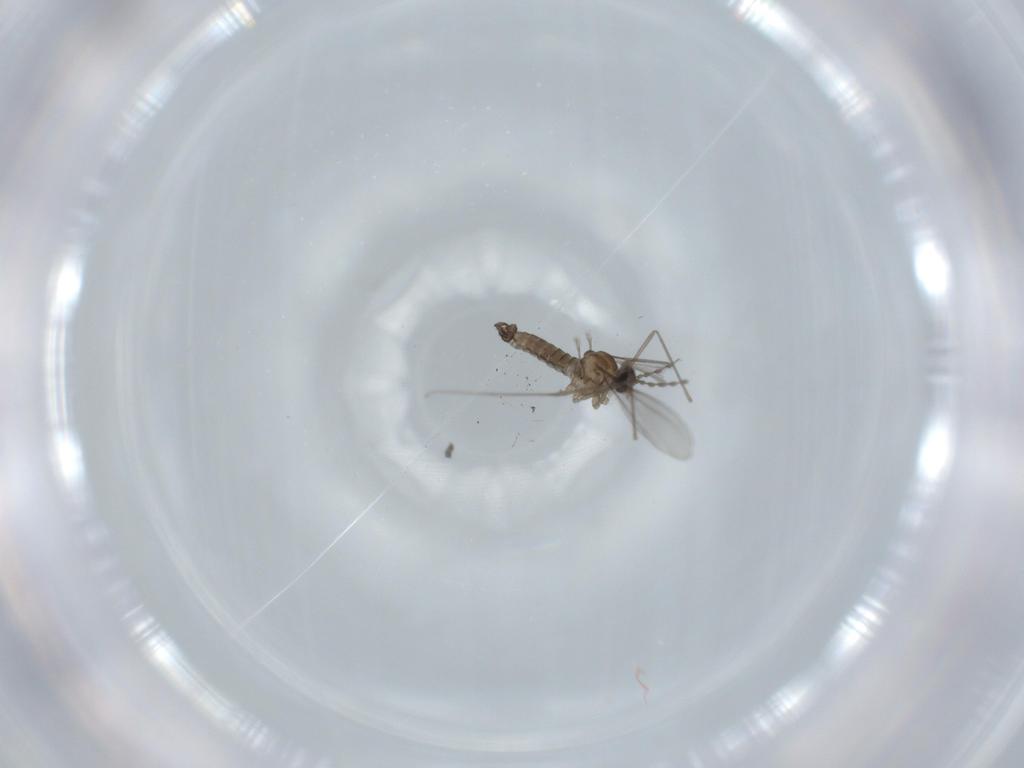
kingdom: Animalia
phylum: Arthropoda
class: Insecta
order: Diptera
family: Cecidomyiidae
